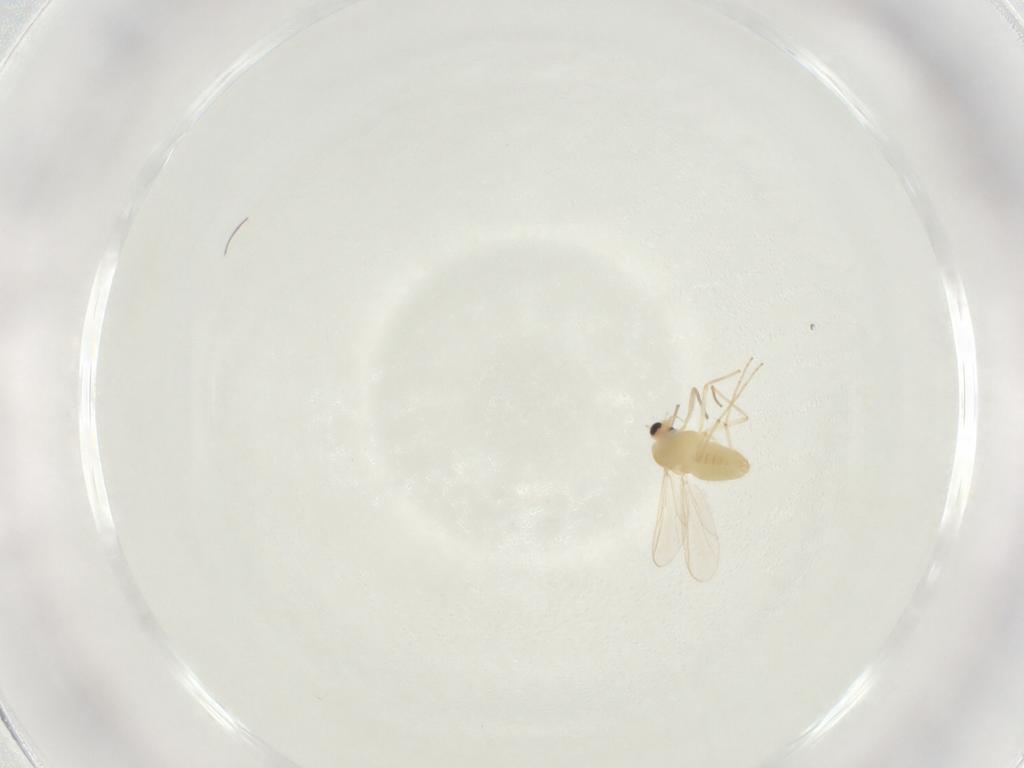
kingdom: Animalia
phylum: Arthropoda
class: Insecta
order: Diptera
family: Chironomidae
